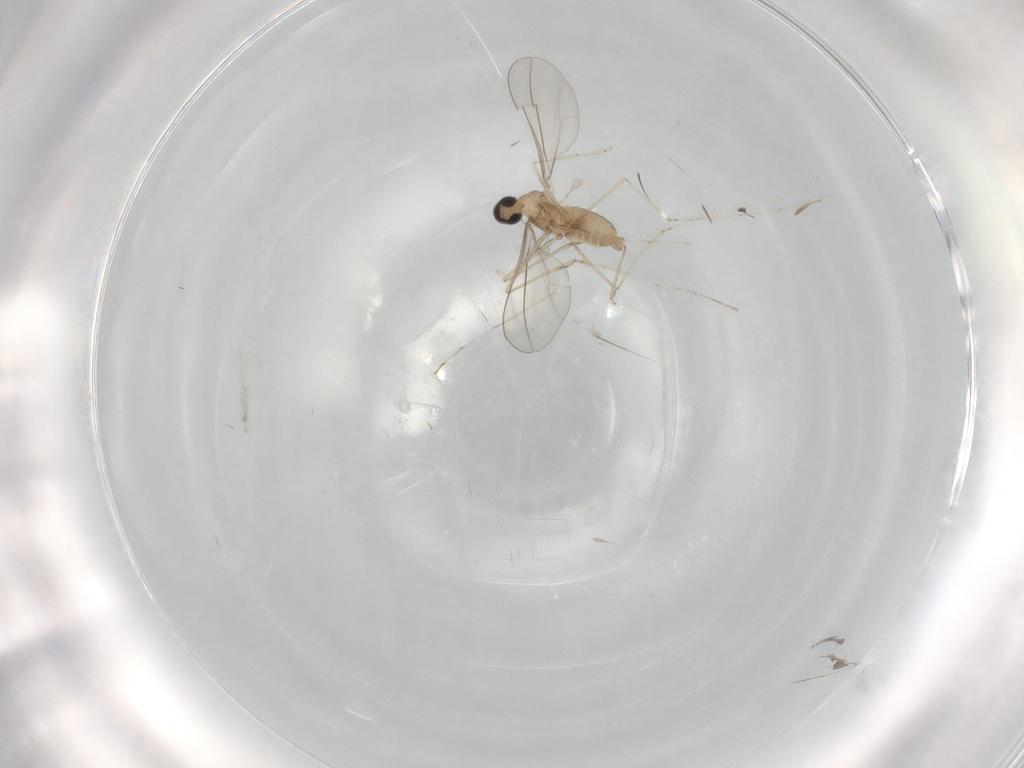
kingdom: Animalia
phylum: Arthropoda
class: Insecta
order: Diptera
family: Cecidomyiidae
